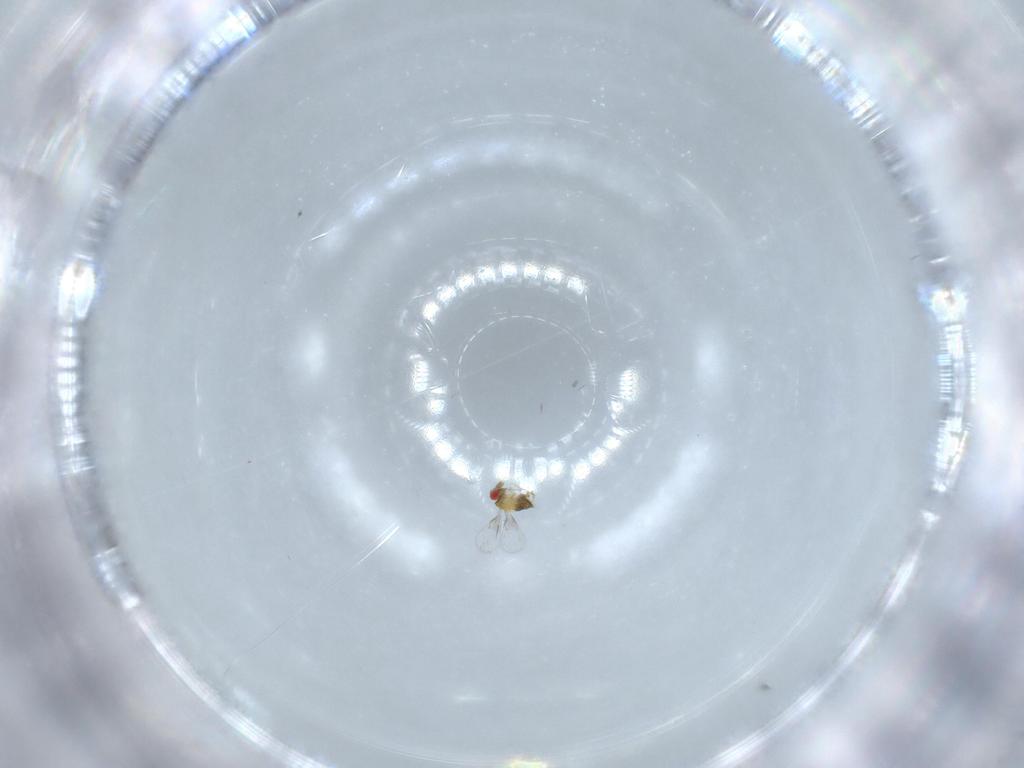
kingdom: Animalia
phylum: Arthropoda
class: Insecta
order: Hymenoptera
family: Trichogrammatidae
